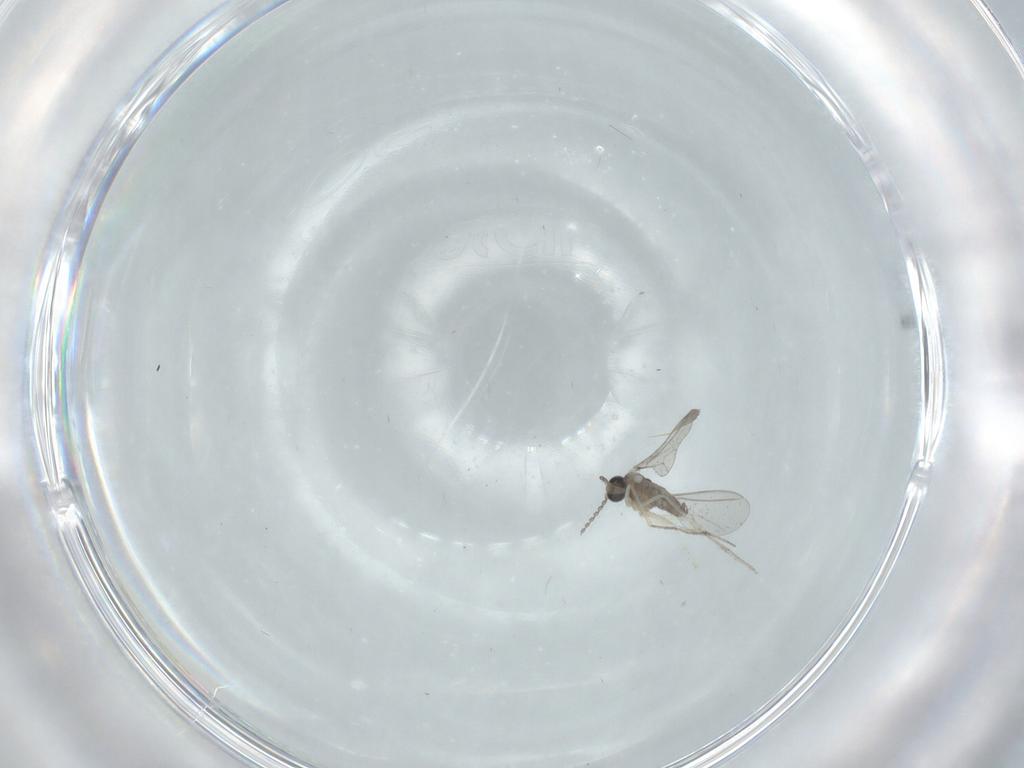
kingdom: Animalia
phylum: Arthropoda
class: Insecta
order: Diptera
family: Cecidomyiidae
